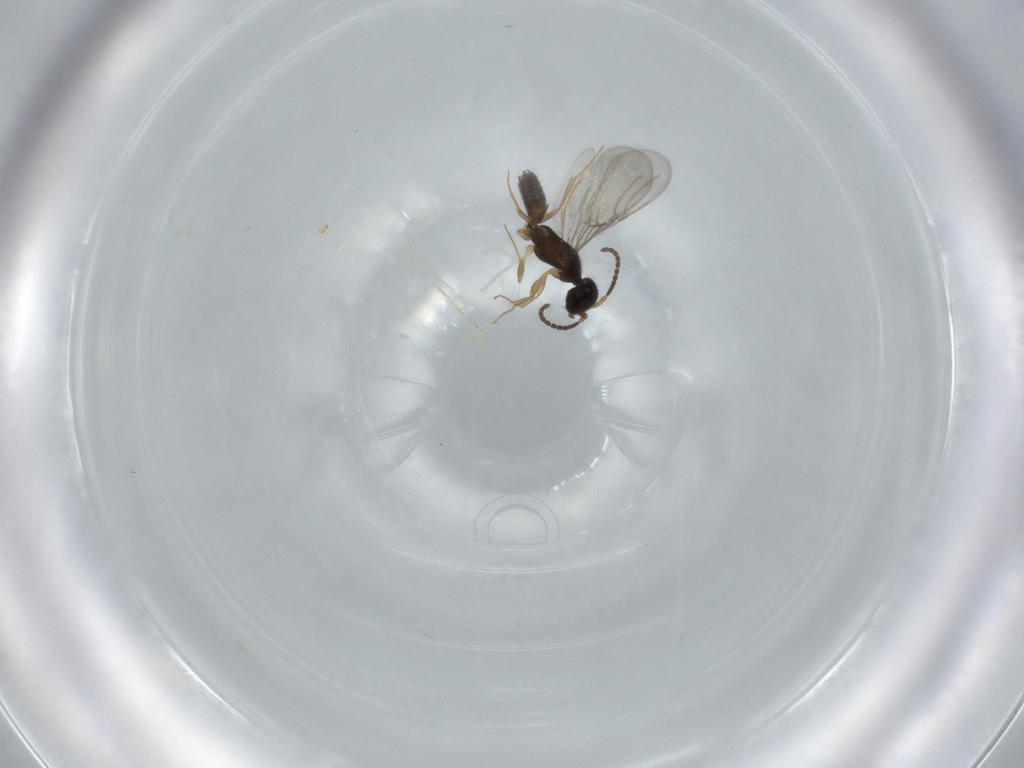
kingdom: Animalia
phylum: Arthropoda
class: Insecta
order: Hymenoptera
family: Bethylidae
